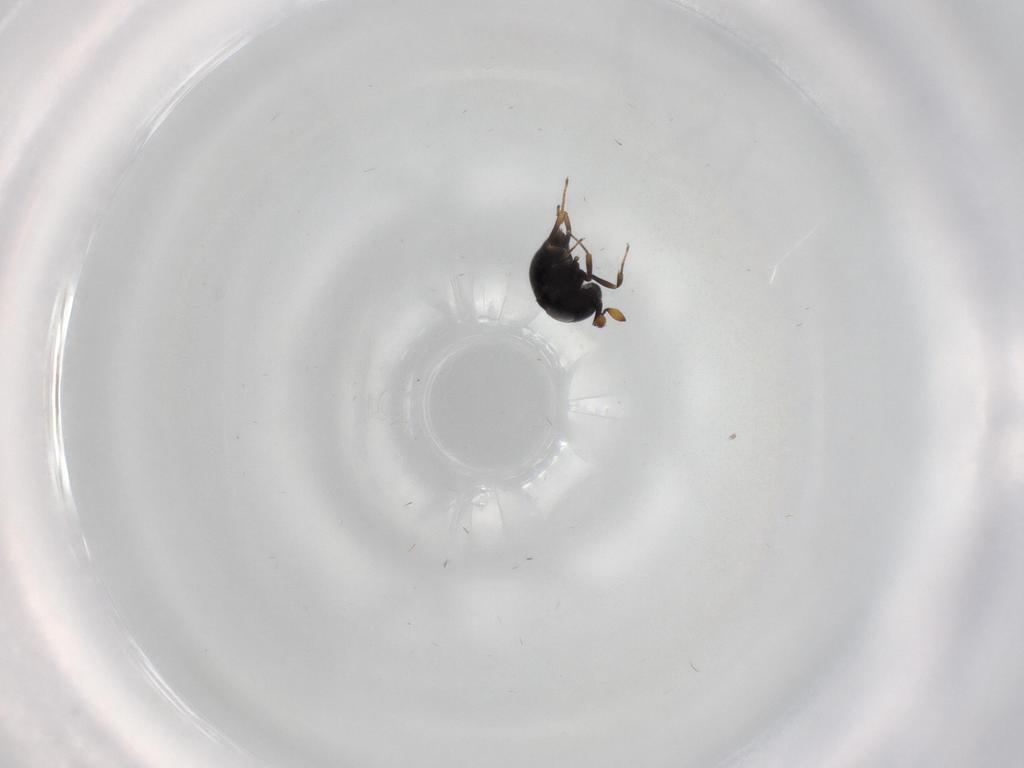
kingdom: Animalia
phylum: Arthropoda
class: Insecta
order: Hymenoptera
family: Scelionidae
